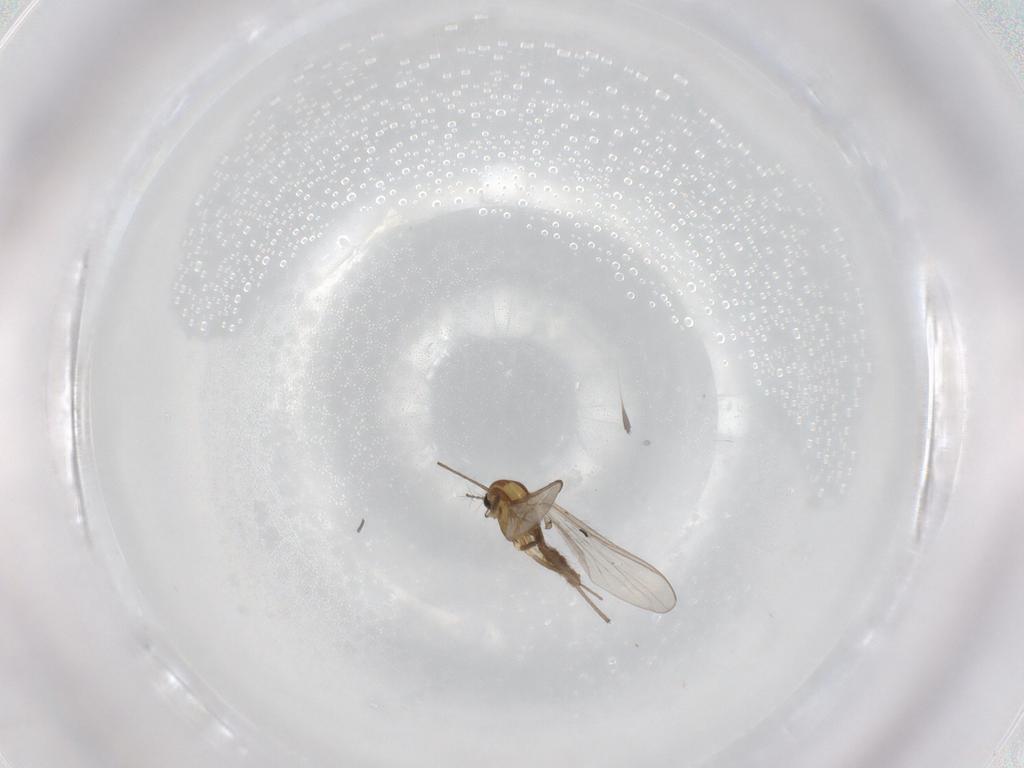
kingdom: Animalia
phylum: Arthropoda
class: Insecta
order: Diptera
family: Chironomidae
